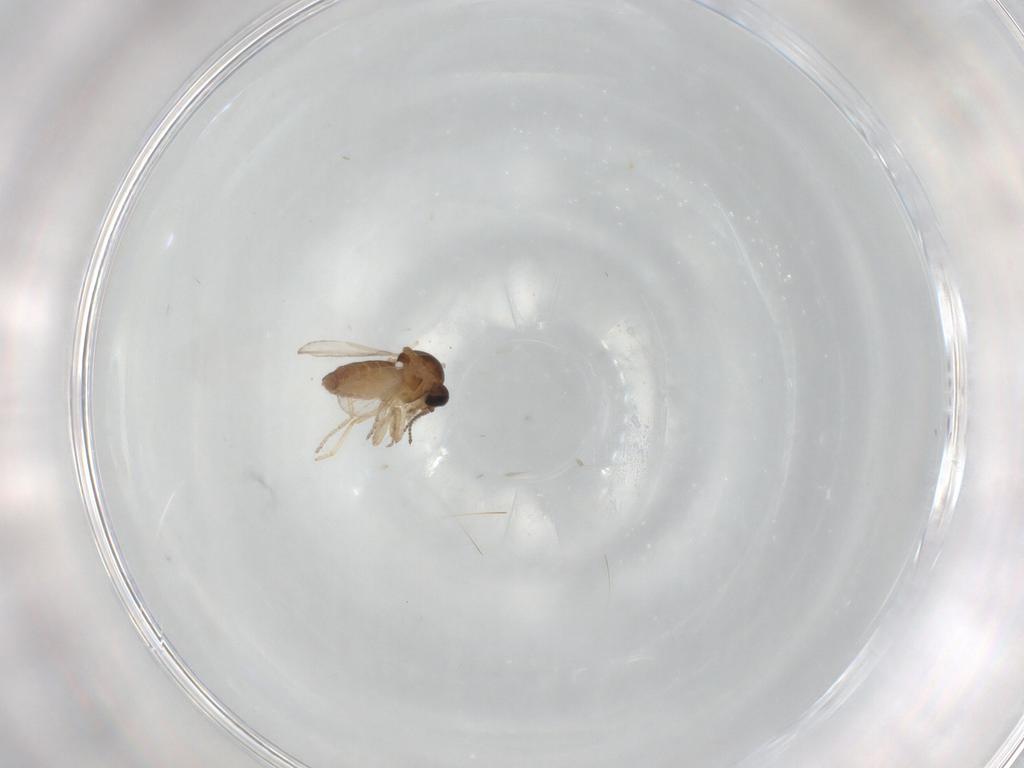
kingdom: Animalia
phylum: Arthropoda
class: Insecta
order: Diptera
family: Ceratopogonidae
